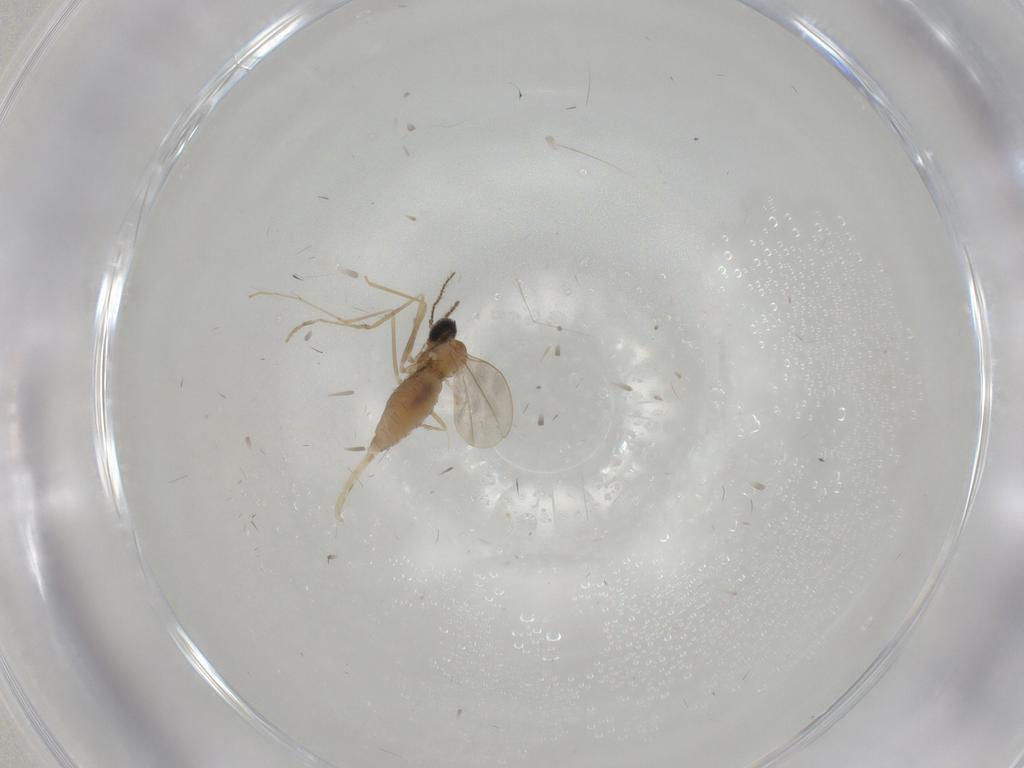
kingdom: Animalia
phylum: Arthropoda
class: Insecta
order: Diptera
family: Cecidomyiidae
